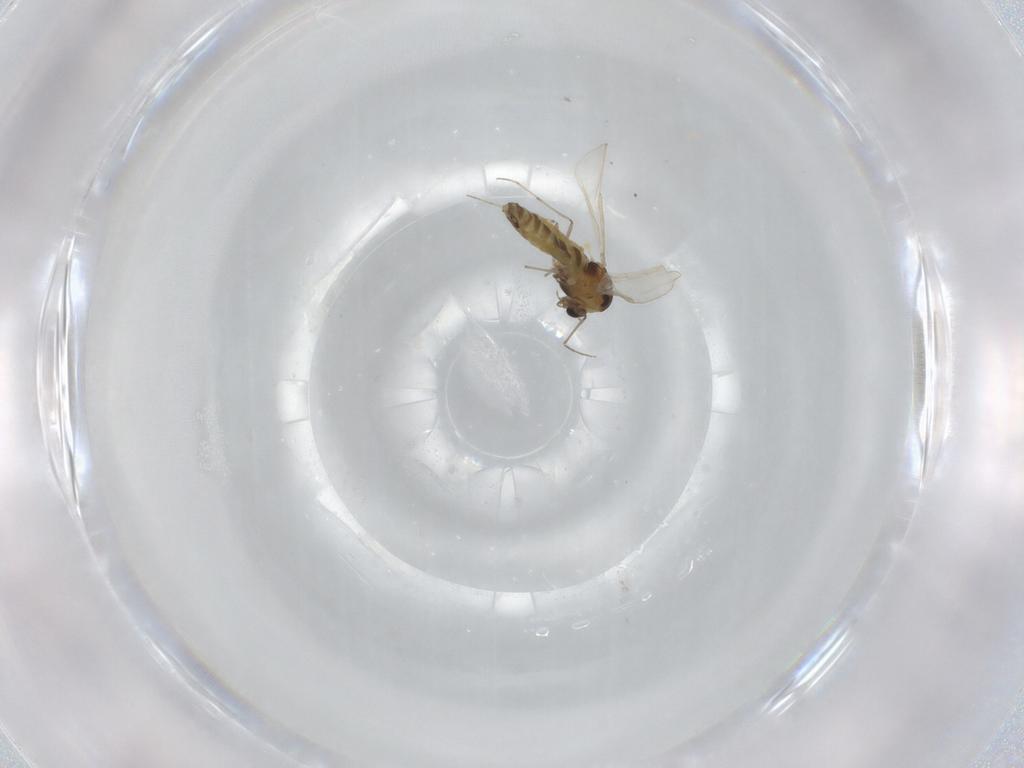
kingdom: Animalia
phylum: Arthropoda
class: Insecta
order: Diptera
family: Chironomidae
